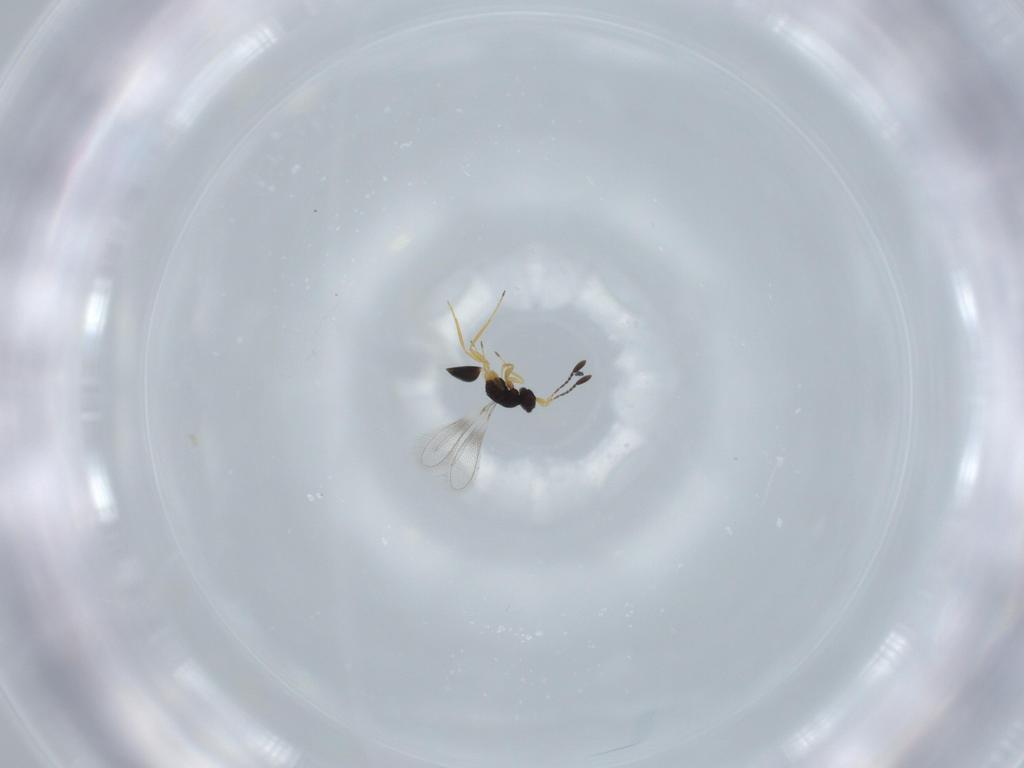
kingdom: Animalia
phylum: Arthropoda
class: Insecta
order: Hymenoptera
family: Mymaridae
